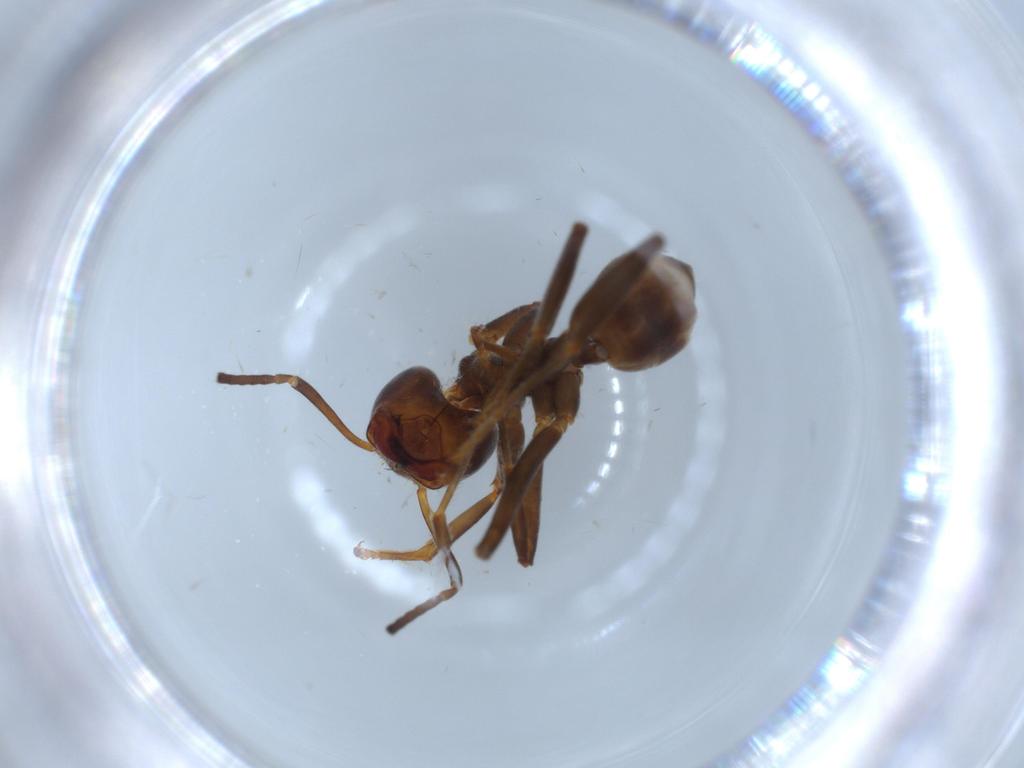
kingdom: Animalia
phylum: Arthropoda
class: Insecta
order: Hymenoptera
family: Formicidae
